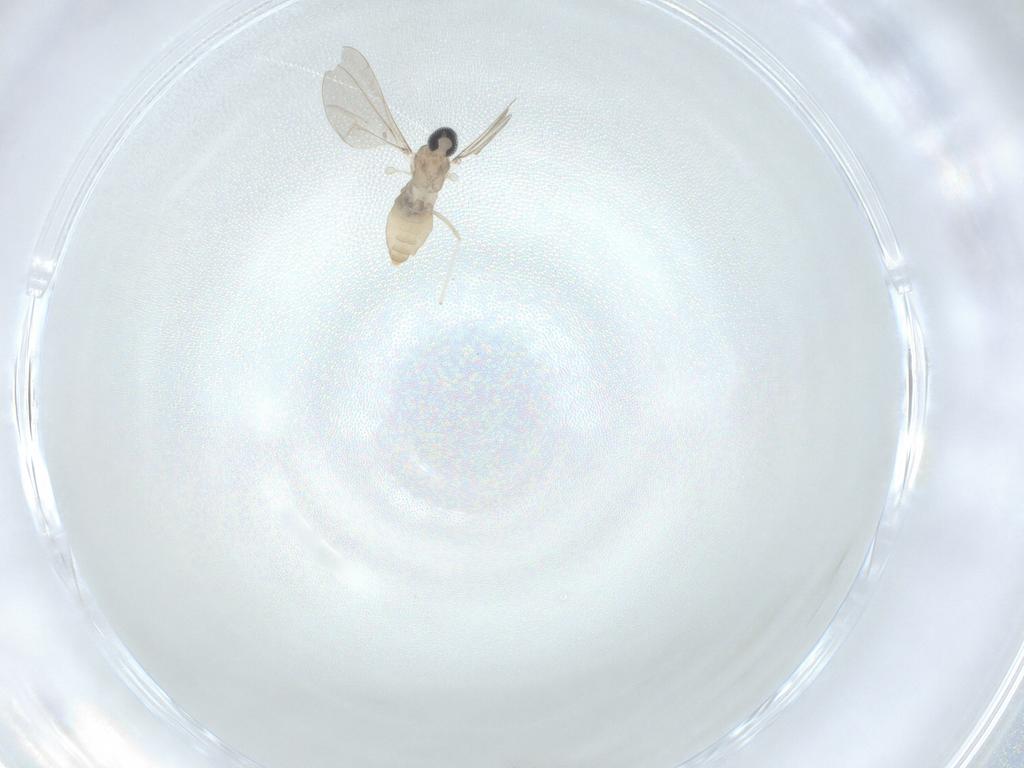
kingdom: Animalia
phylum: Arthropoda
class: Insecta
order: Diptera
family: Cecidomyiidae
